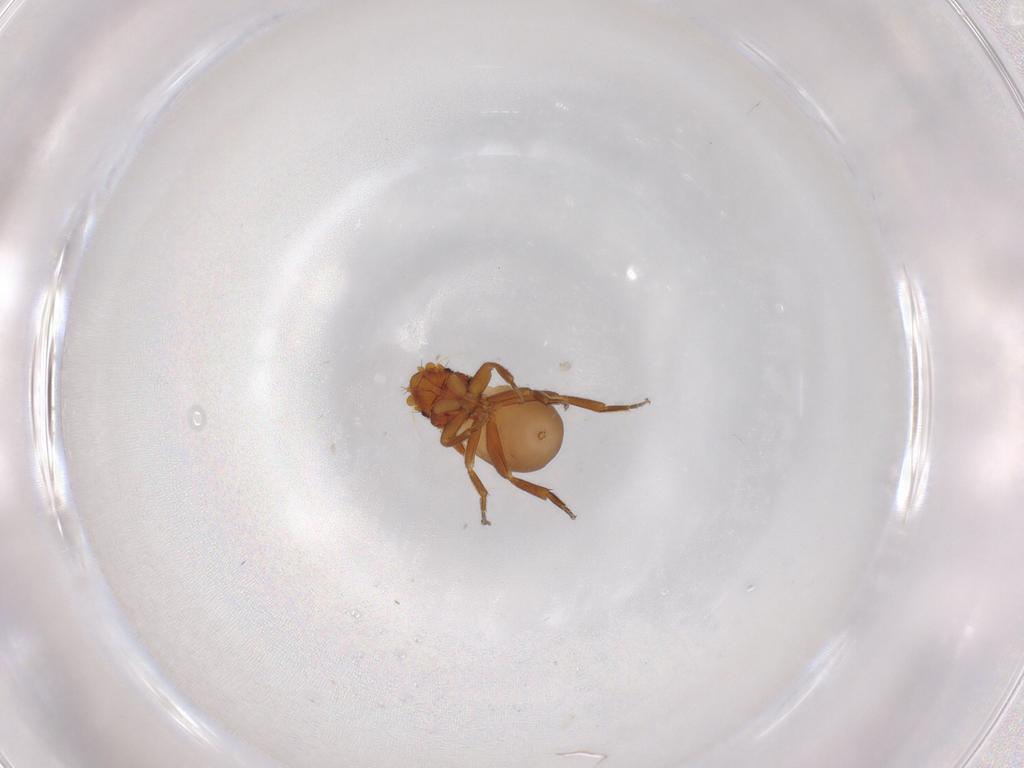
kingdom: Animalia
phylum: Arthropoda
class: Insecta
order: Diptera
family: Phoridae
